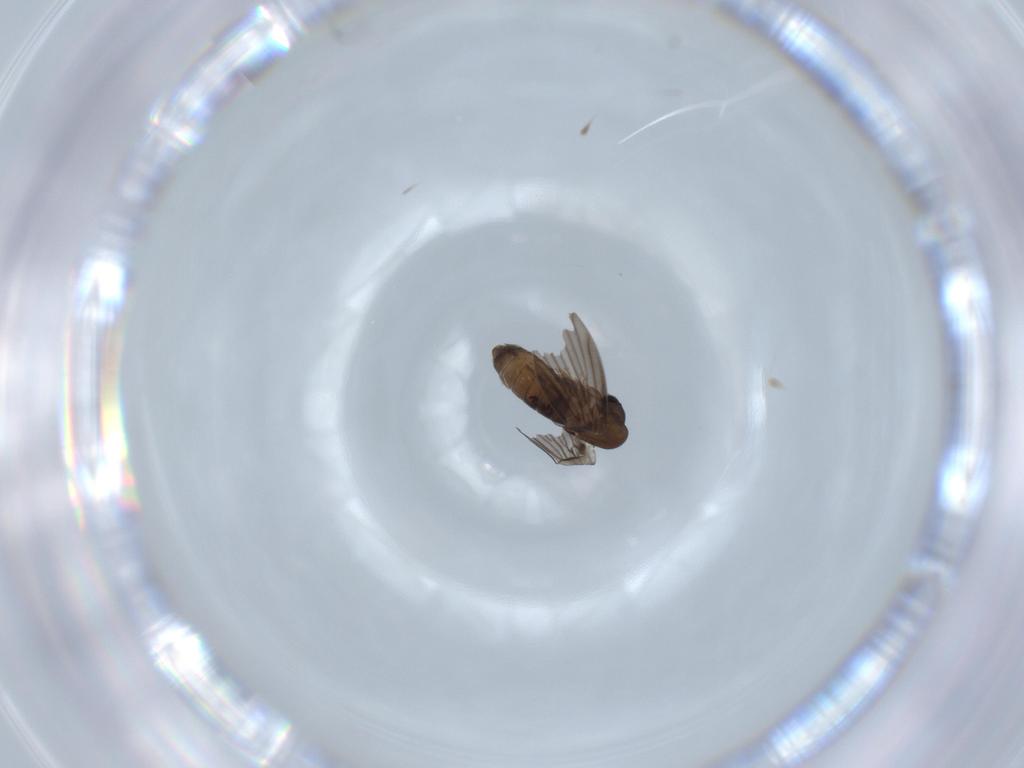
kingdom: Animalia
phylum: Arthropoda
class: Insecta
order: Diptera
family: Psychodidae
